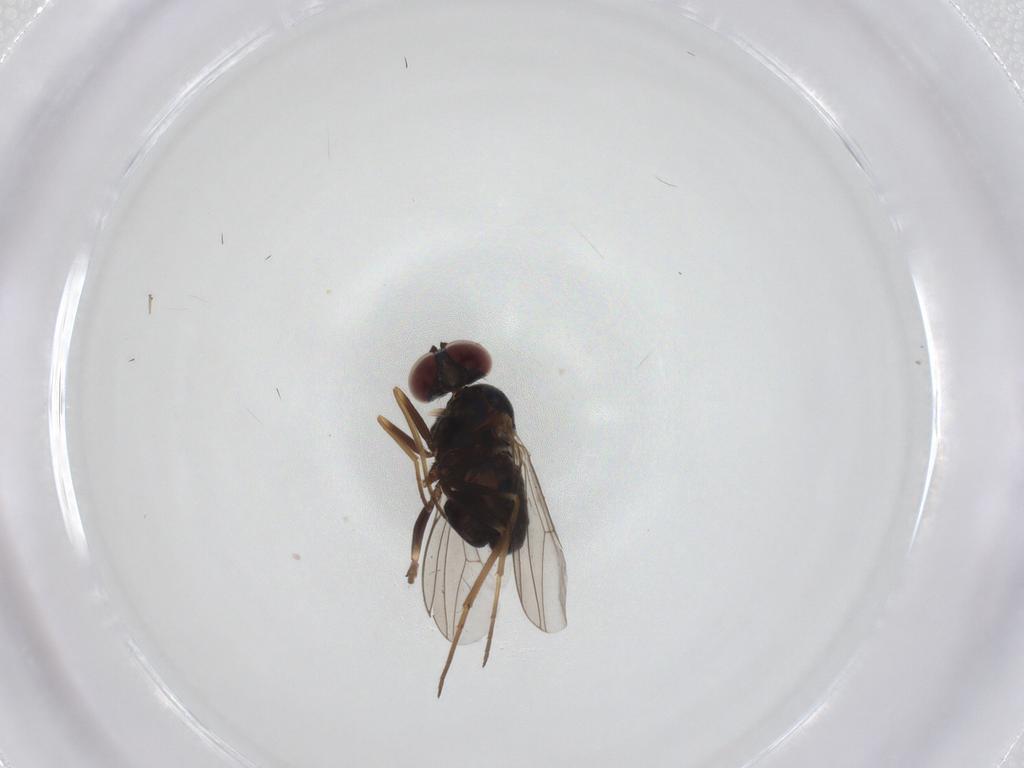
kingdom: Animalia
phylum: Arthropoda
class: Insecta
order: Diptera
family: Dolichopodidae
